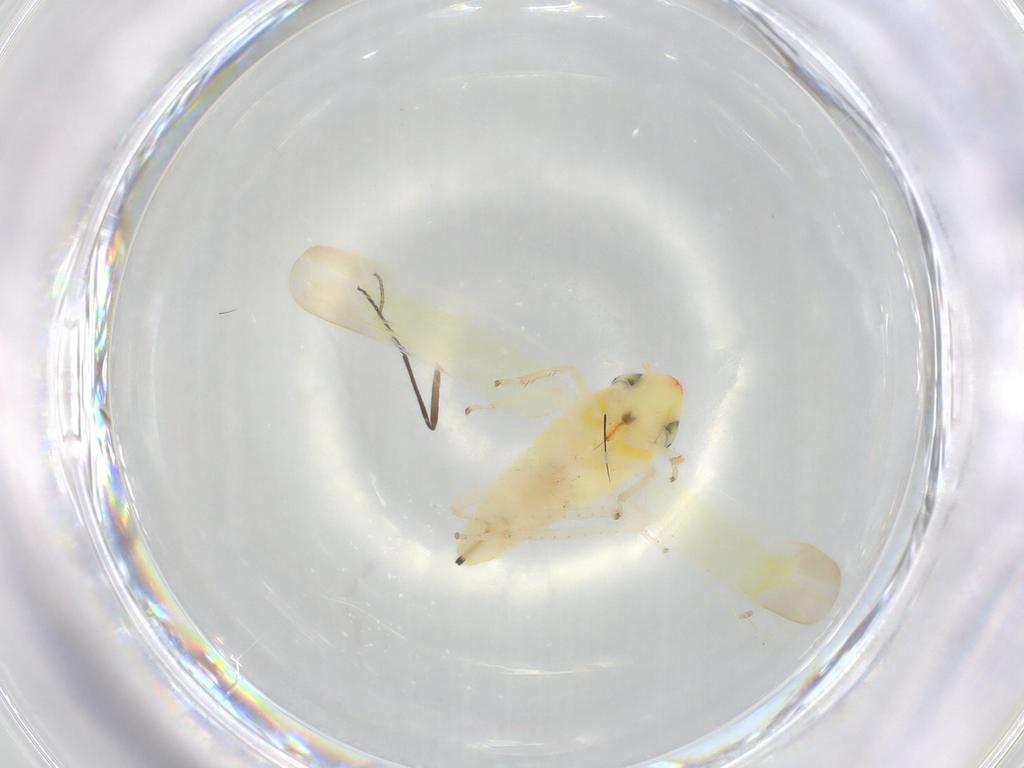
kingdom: Animalia
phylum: Arthropoda
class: Insecta
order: Hemiptera
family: Cicadellidae
